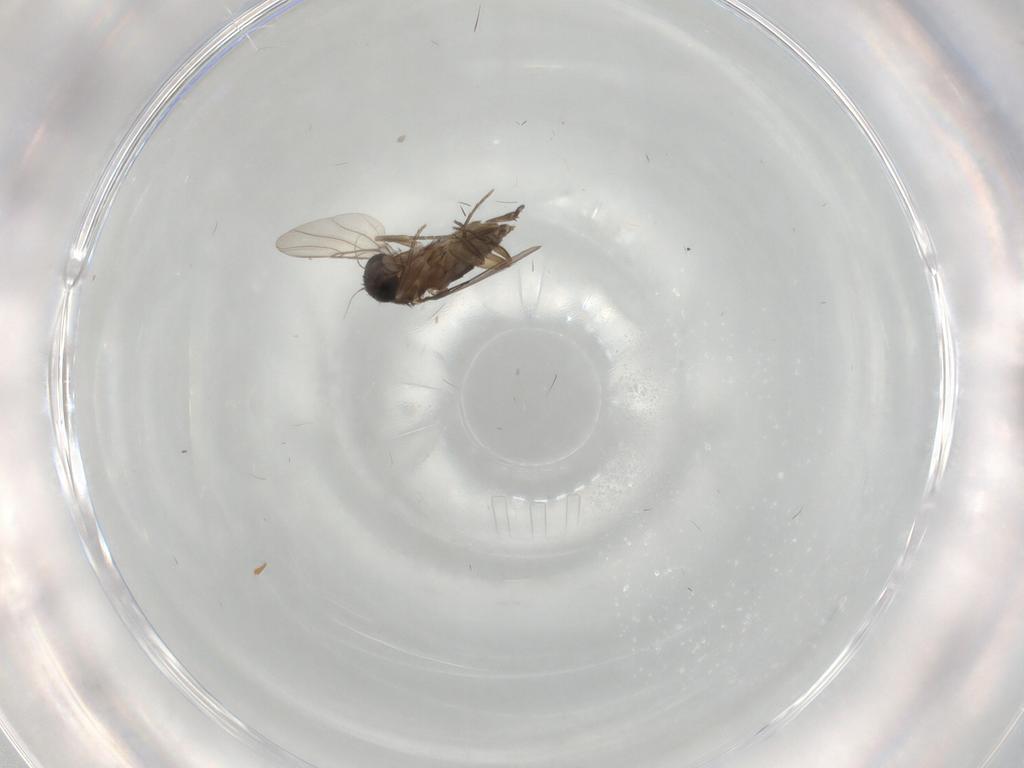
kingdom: Animalia
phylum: Arthropoda
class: Insecta
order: Diptera
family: Phoridae
